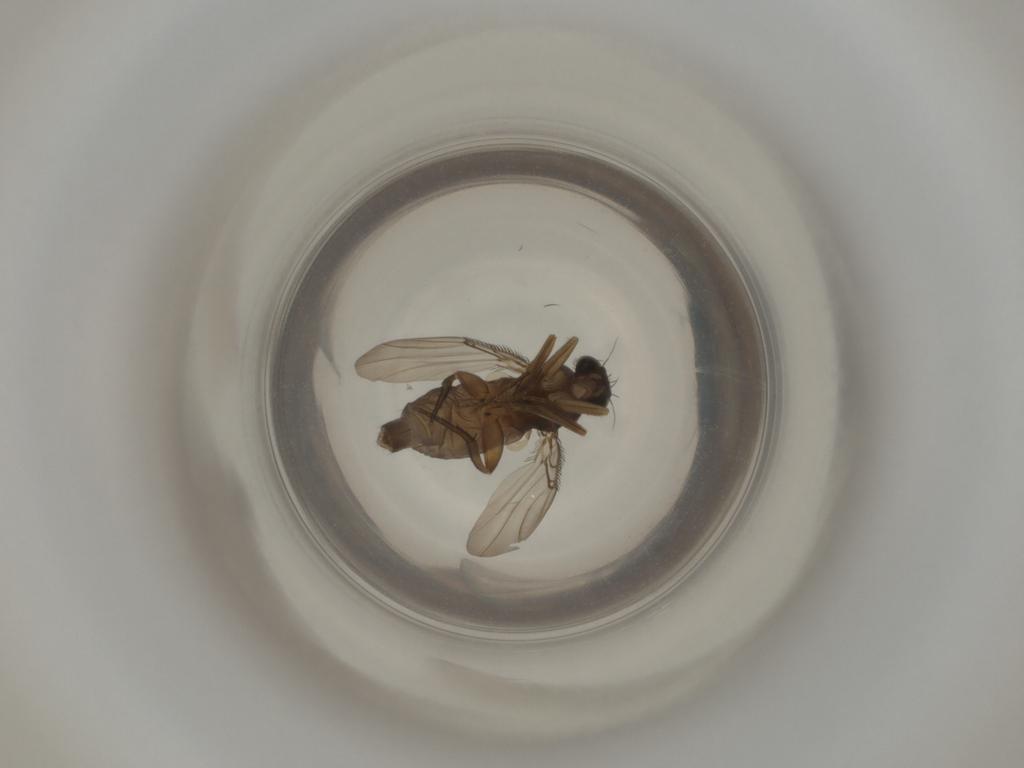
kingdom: Animalia
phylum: Arthropoda
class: Insecta
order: Diptera
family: Phoridae
